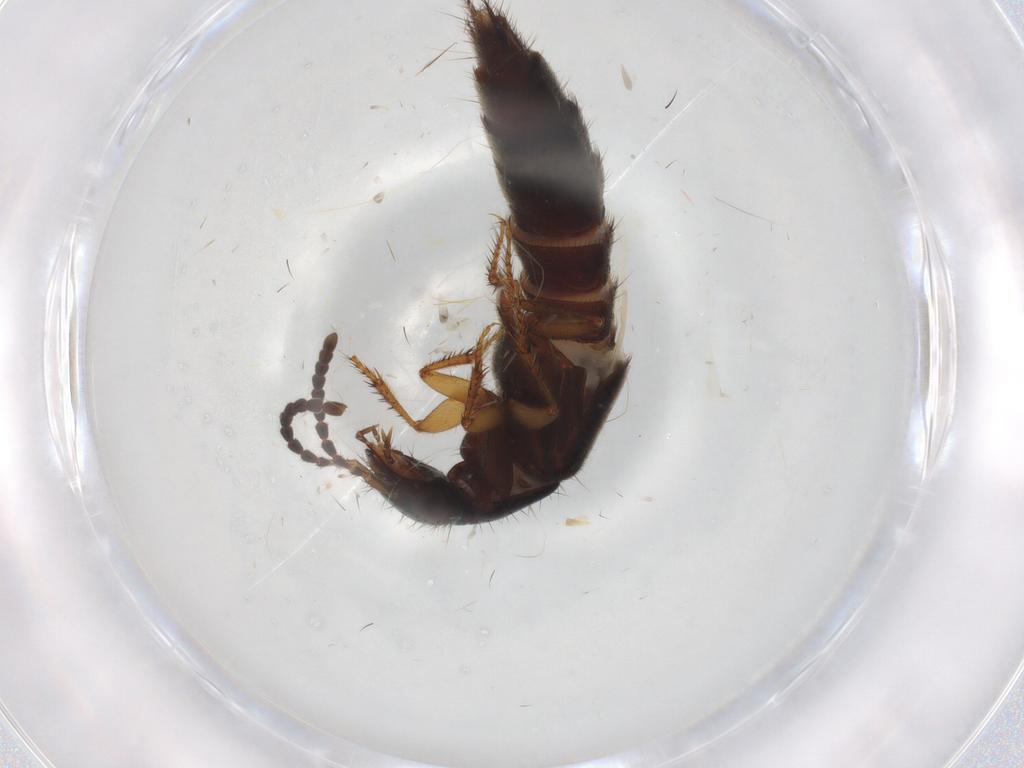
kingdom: Animalia
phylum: Arthropoda
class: Insecta
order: Coleoptera
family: Staphylinidae
